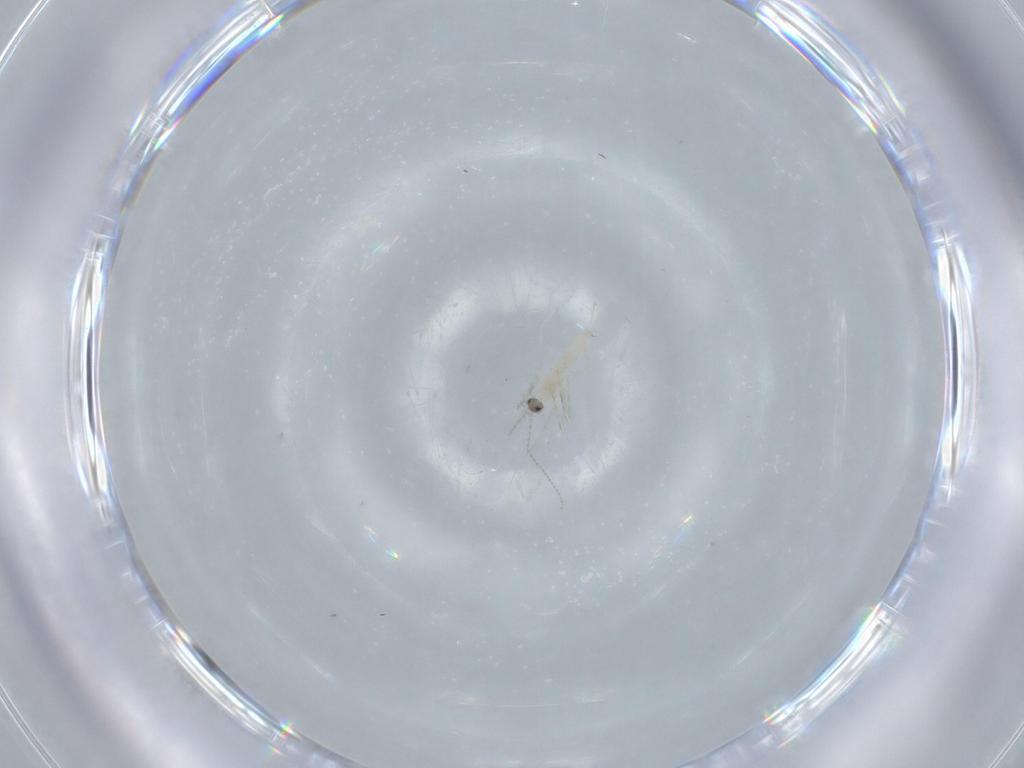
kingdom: Animalia
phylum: Arthropoda
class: Insecta
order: Diptera
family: Cecidomyiidae
